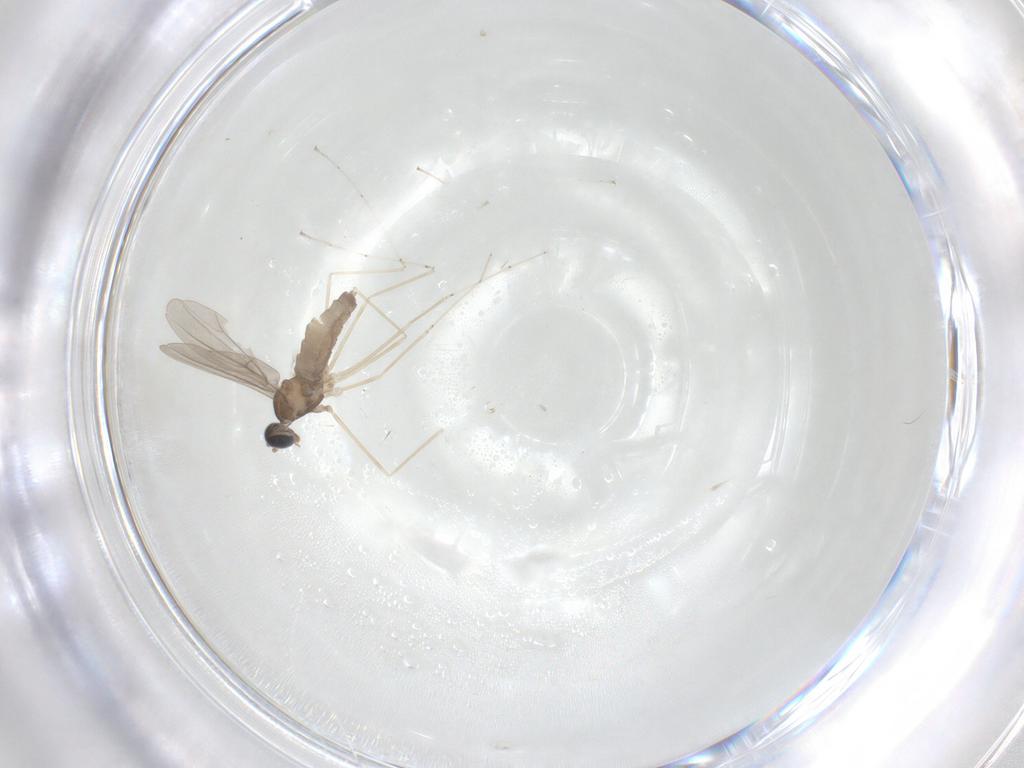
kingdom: Animalia
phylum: Arthropoda
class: Insecta
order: Diptera
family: Cecidomyiidae
